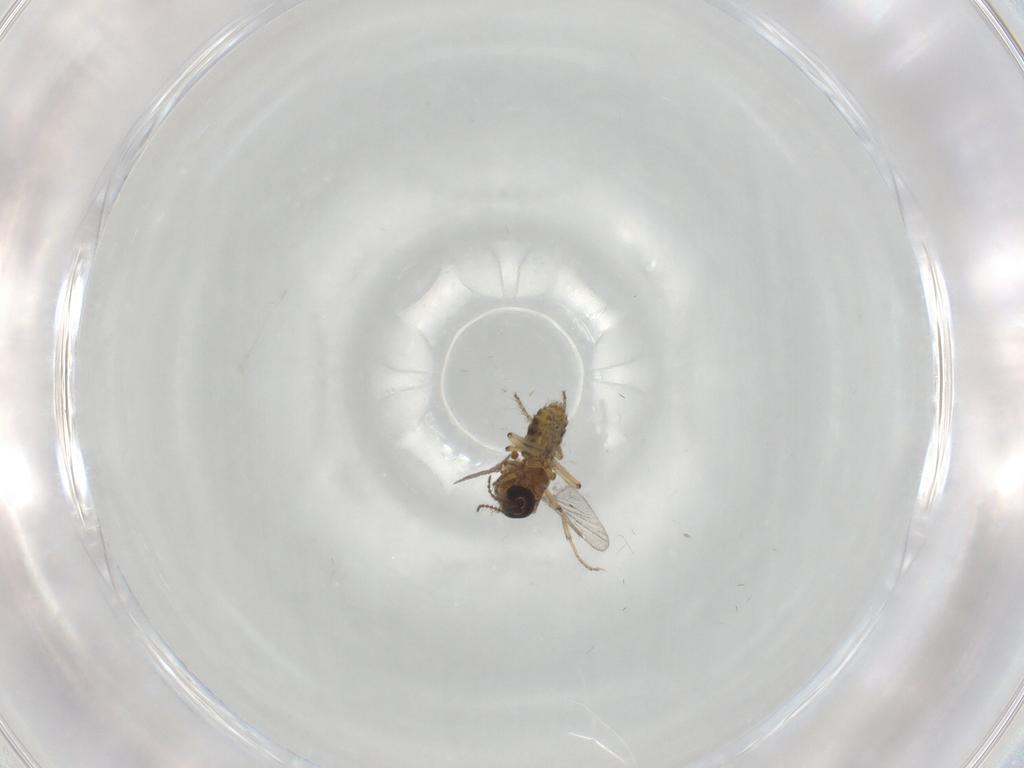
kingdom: Animalia
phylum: Arthropoda
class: Insecta
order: Diptera
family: Ceratopogonidae
